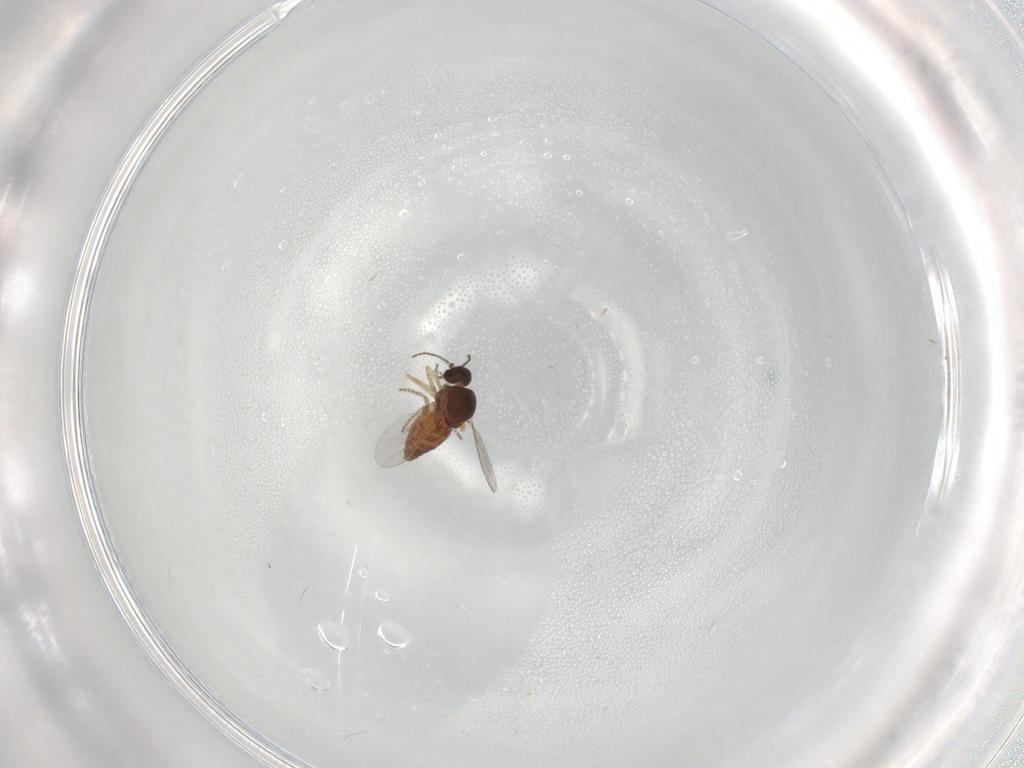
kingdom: Animalia
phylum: Arthropoda
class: Insecta
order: Diptera
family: Ceratopogonidae
